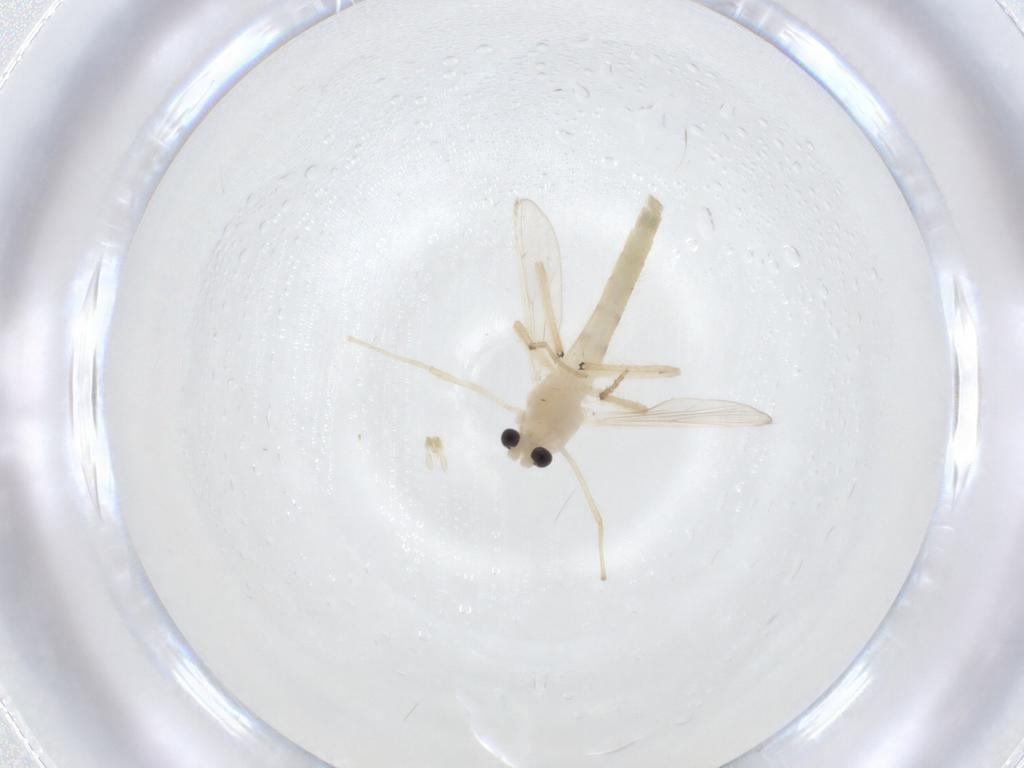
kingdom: Animalia
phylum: Arthropoda
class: Insecta
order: Diptera
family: Chironomidae
